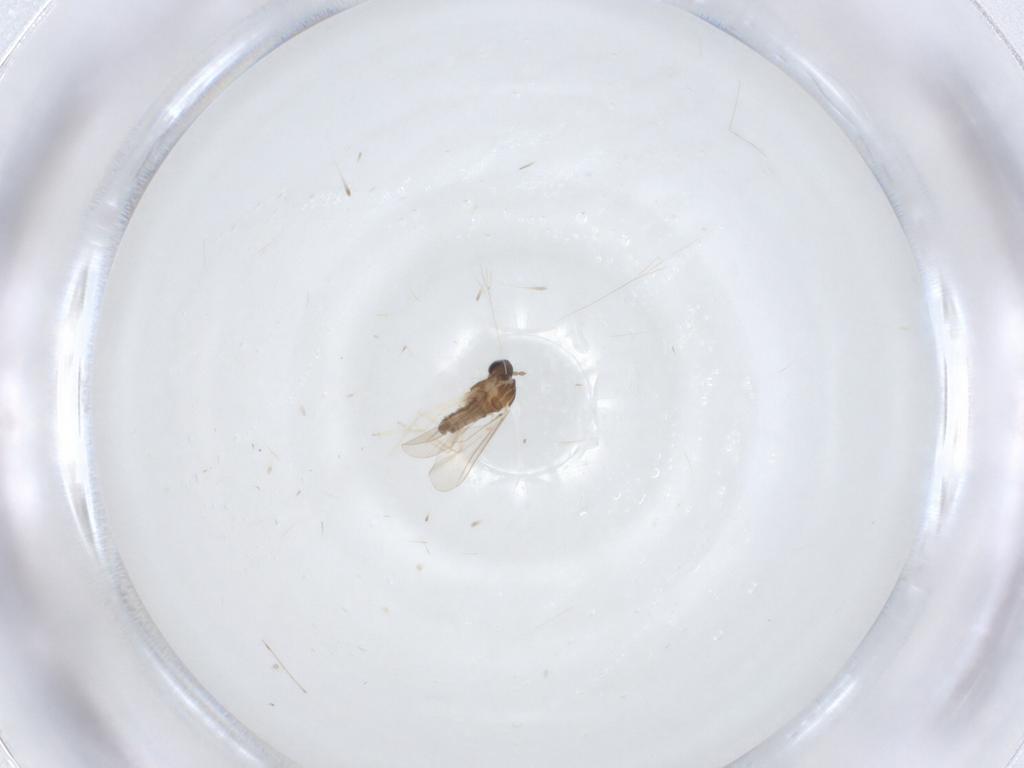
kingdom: Animalia
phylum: Arthropoda
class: Insecta
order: Diptera
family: Cecidomyiidae
